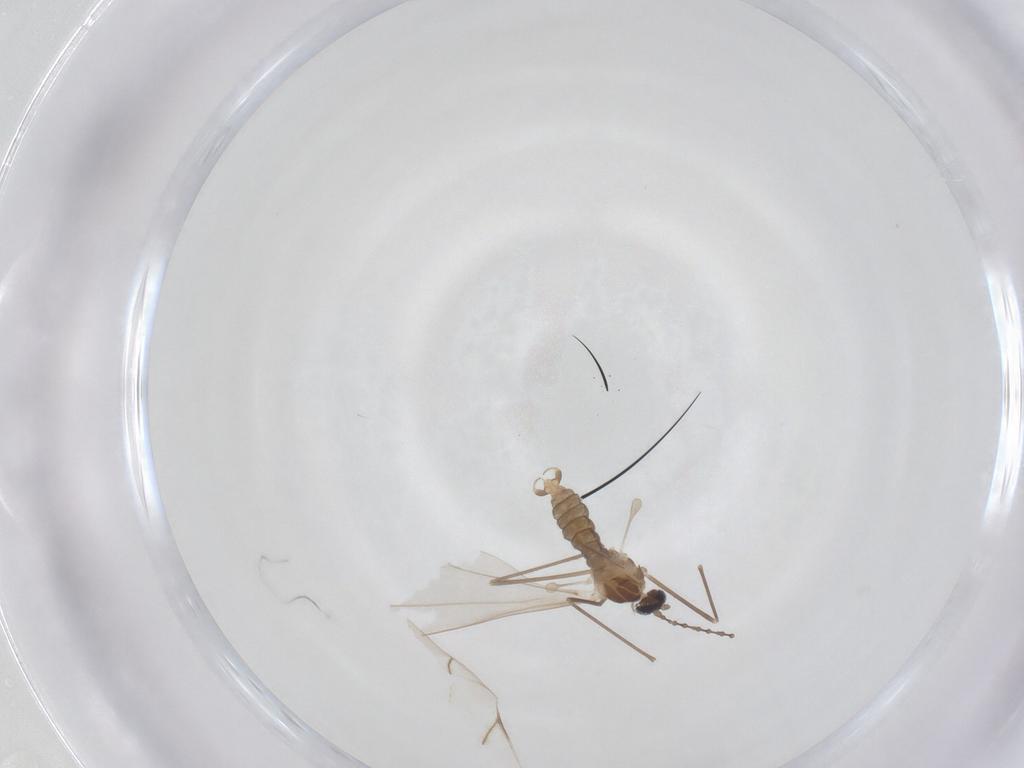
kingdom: Animalia
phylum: Arthropoda
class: Insecta
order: Diptera
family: Cecidomyiidae
